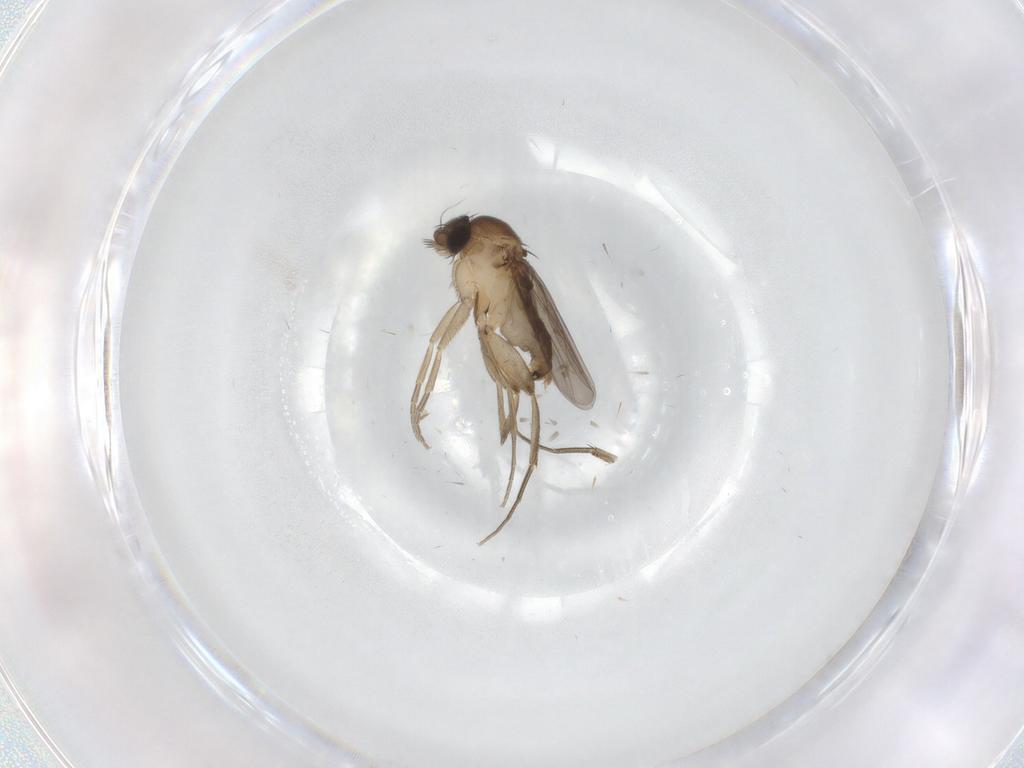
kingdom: Animalia
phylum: Arthropoda
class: Insecta
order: Diptera
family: Phoridae
